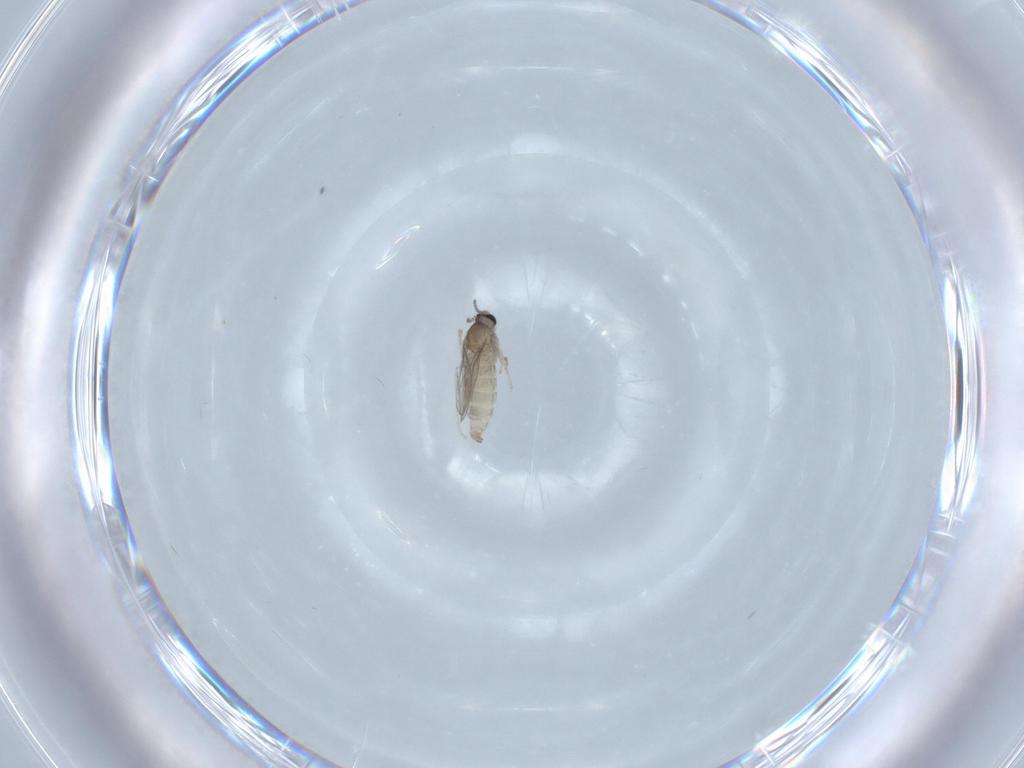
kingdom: Animalia
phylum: Arthropoda
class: Insecta
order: Diptera
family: Cecidomyiidae
